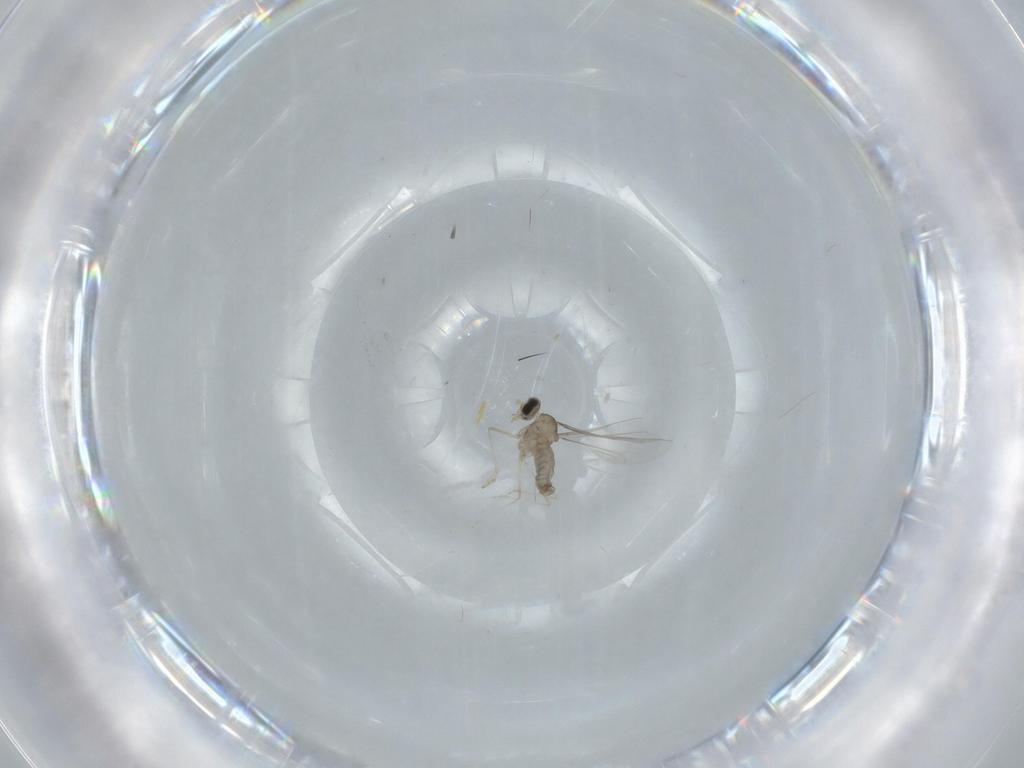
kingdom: Animalia
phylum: Arthropoda
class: Insecta
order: Diptera
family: Cecidomyiidae
